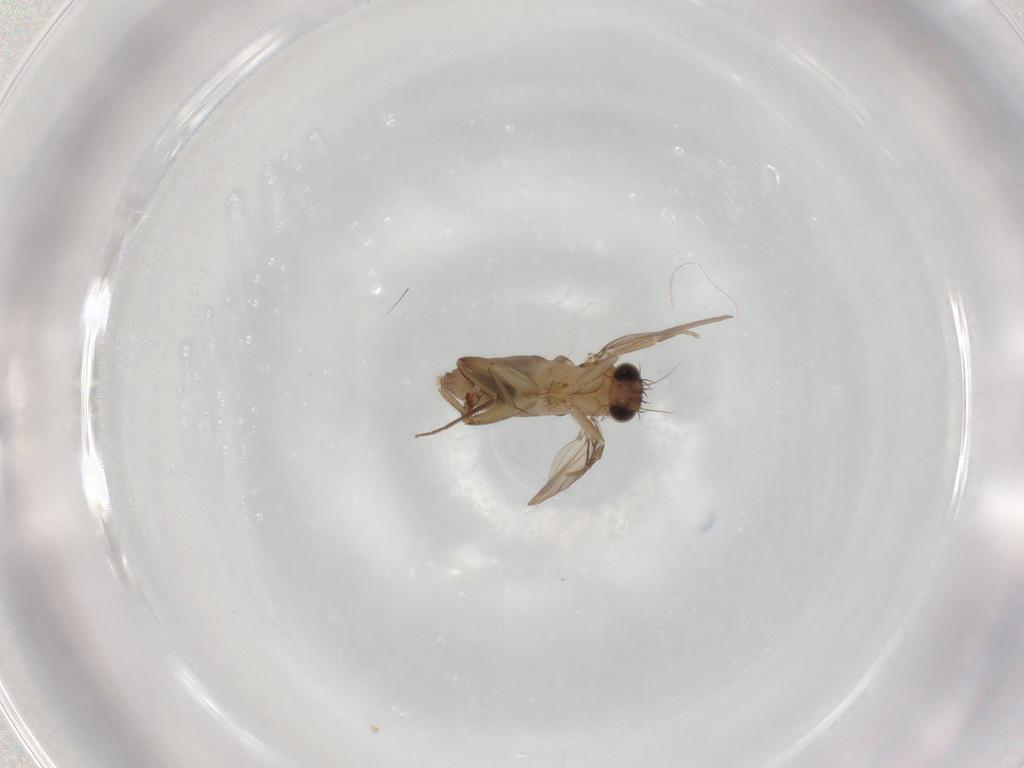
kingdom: Animalia
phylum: Arthropoda
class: Insecta
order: Diptera
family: Phoridae
